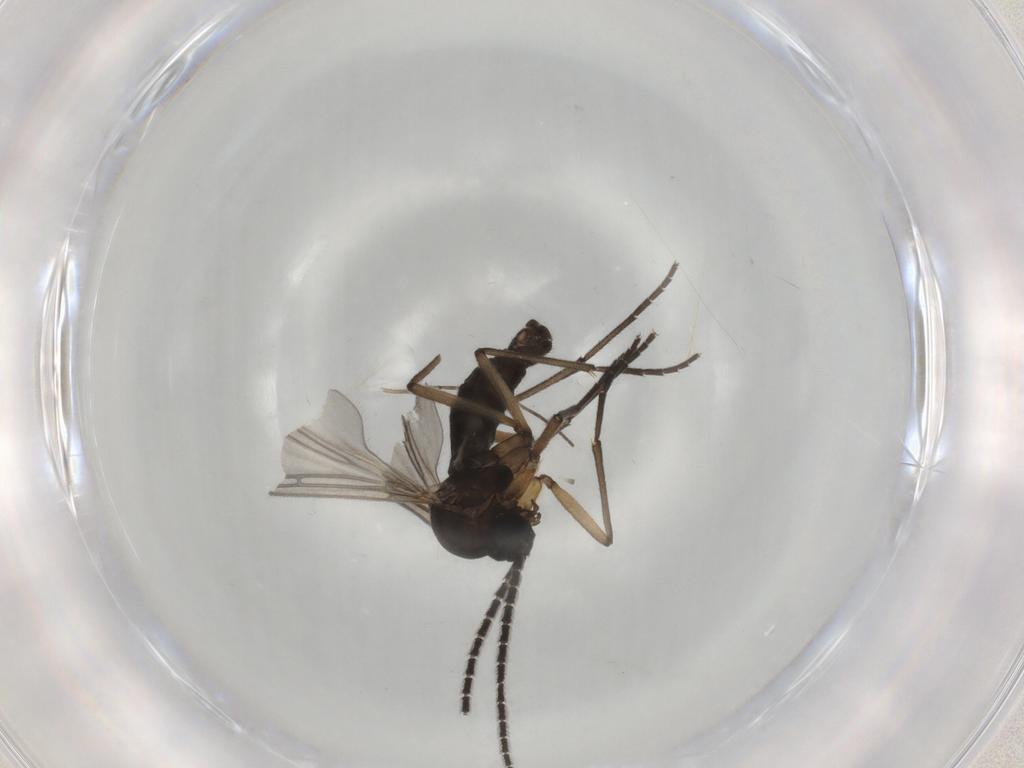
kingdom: Animalia
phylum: Arthropoda
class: Insecta
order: Diptera
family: Sciaridae
